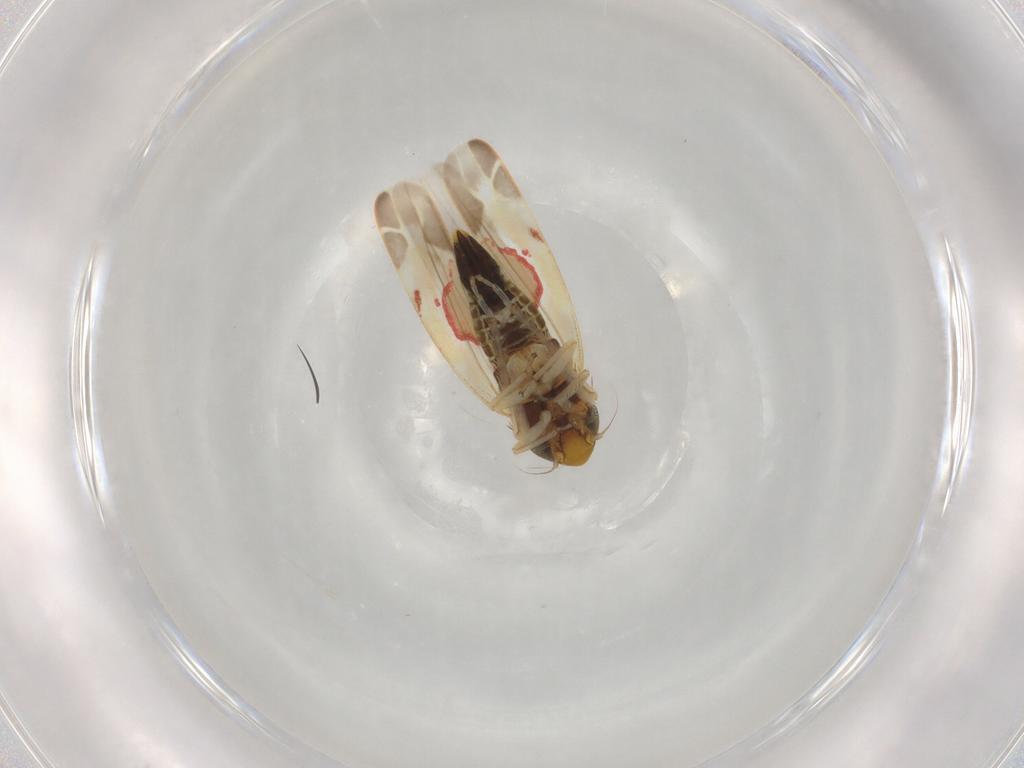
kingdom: Animalia
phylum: Arthropoda
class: Insecta
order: Hemiptera
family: Cicadellidae
